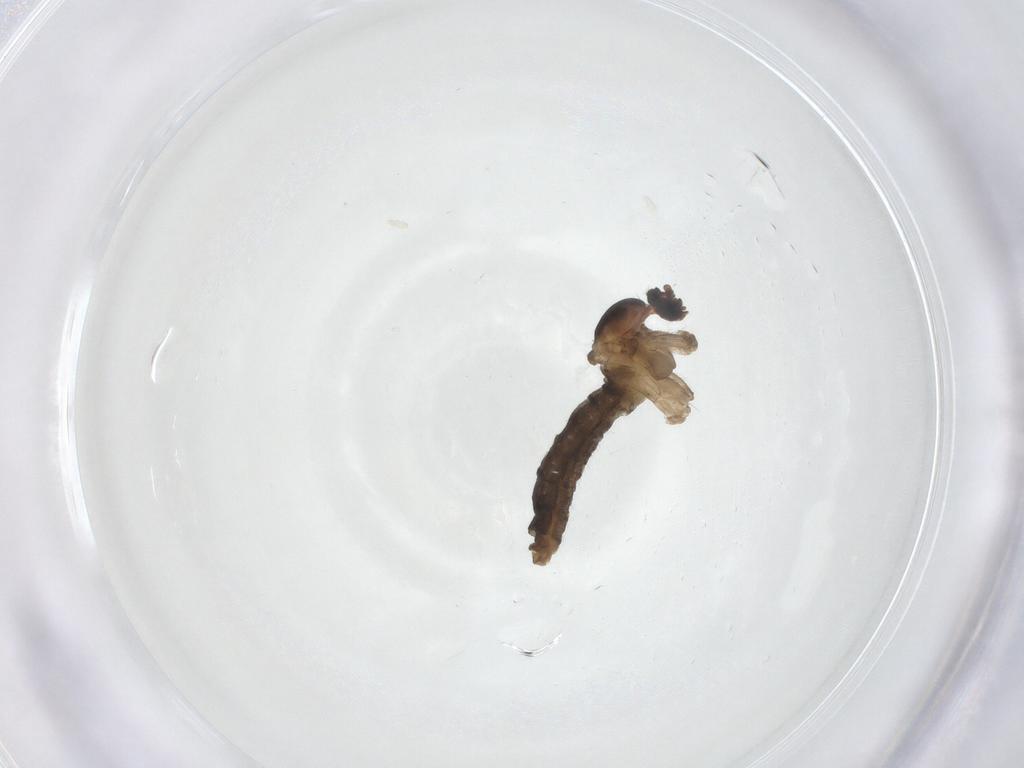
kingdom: Animalia
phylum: Arthropoda
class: Insecta
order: Diptera
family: Cecidomyiidae
